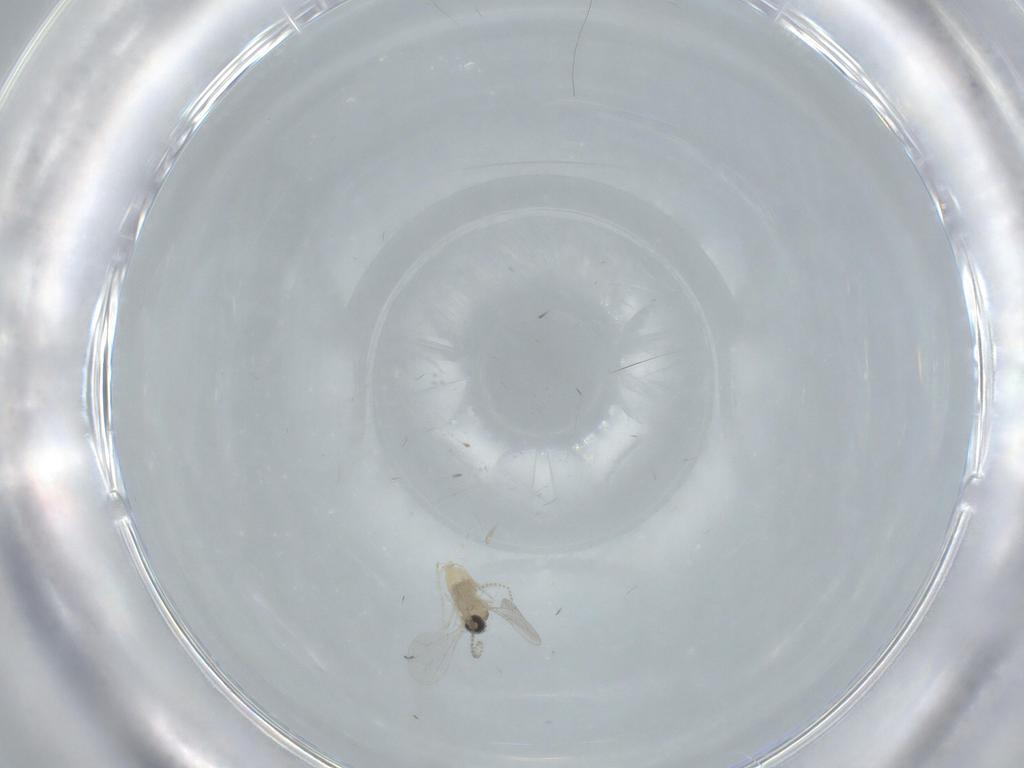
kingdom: Animalia
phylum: Arthropoda
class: Insecta
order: Diptera
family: Cecidomyiidae
